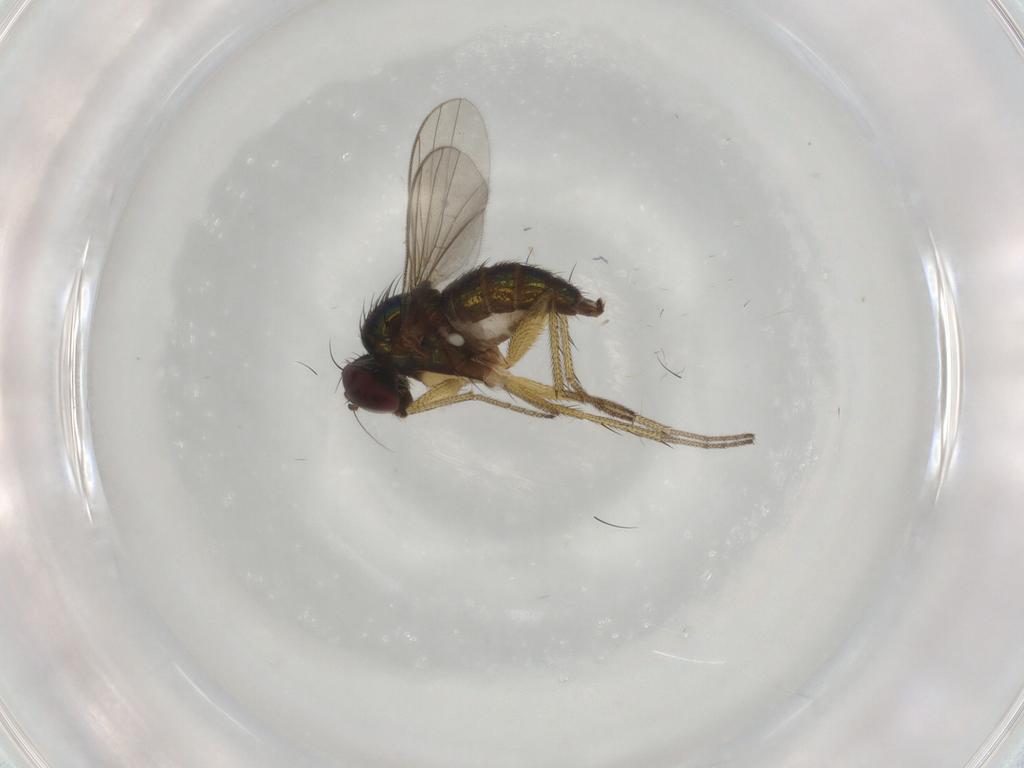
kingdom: Animalia
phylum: Arthropoda
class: Insecta
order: Diptera
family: Dolichopodidae
